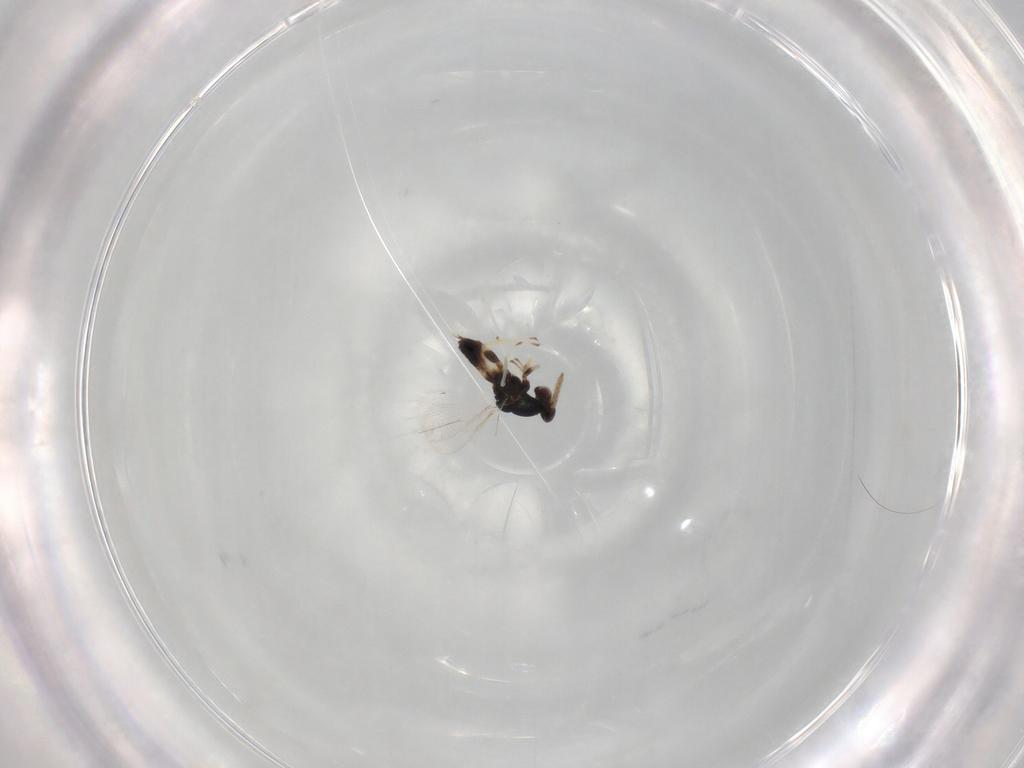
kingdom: Animalia
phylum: Arthropoda
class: Insecta
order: Hymenoptera
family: Eulophidae
